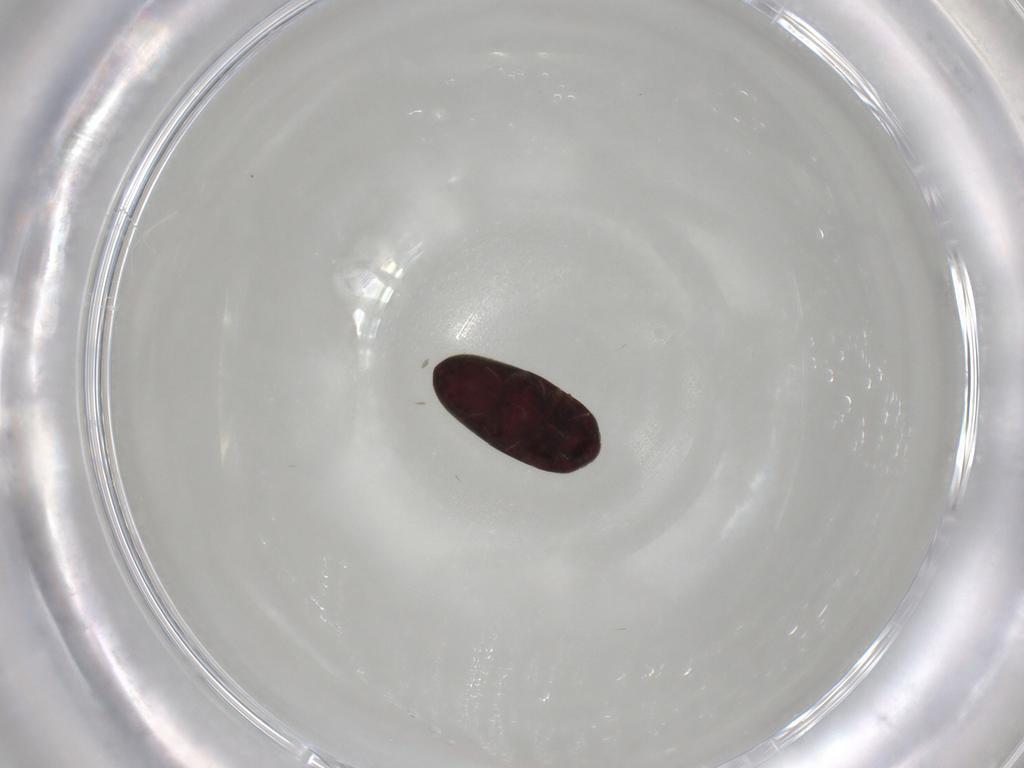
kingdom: Animalia
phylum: Arthropoda
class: Insecta
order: Coleoptera
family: Throscidae
